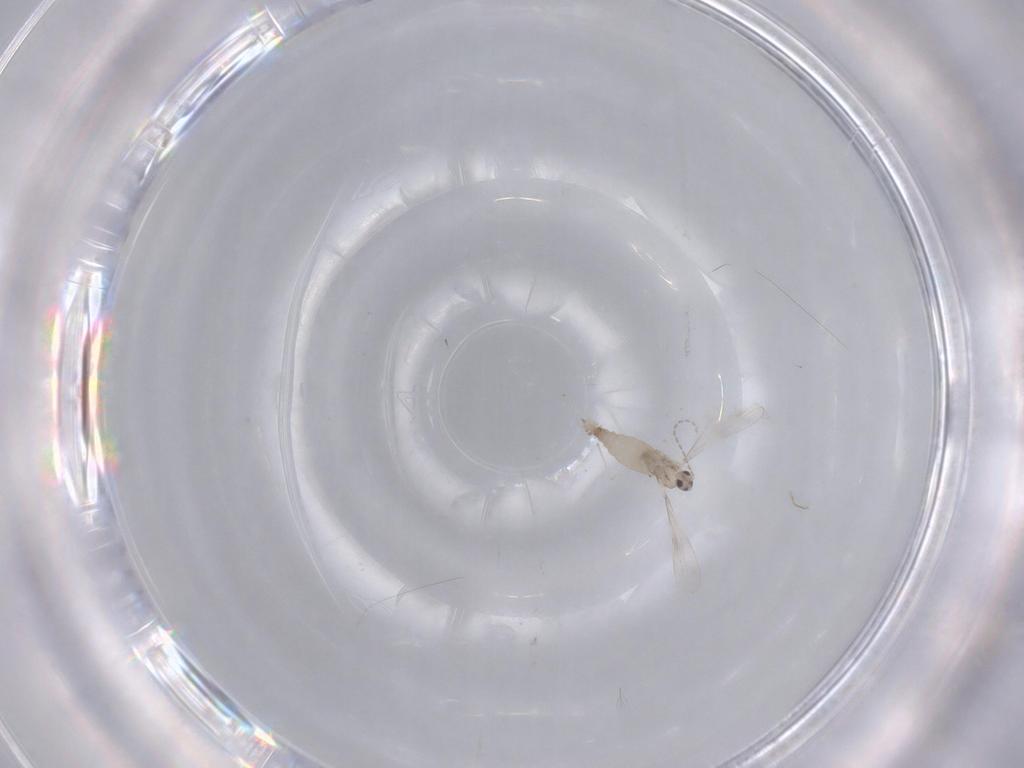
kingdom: Animalia
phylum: Arthropoda
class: Insecta
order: Diptera
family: Cecidomyiidae
